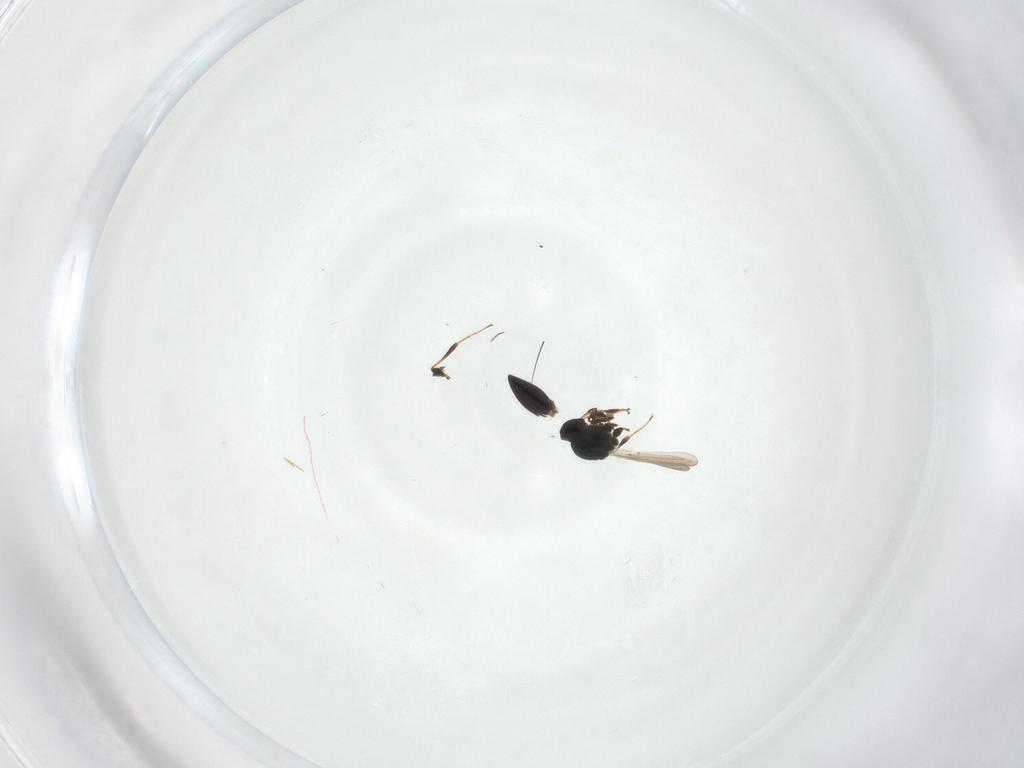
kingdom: Animalia
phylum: Arthropoda
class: Insecta
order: Hymenoptera
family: Platygastridae
